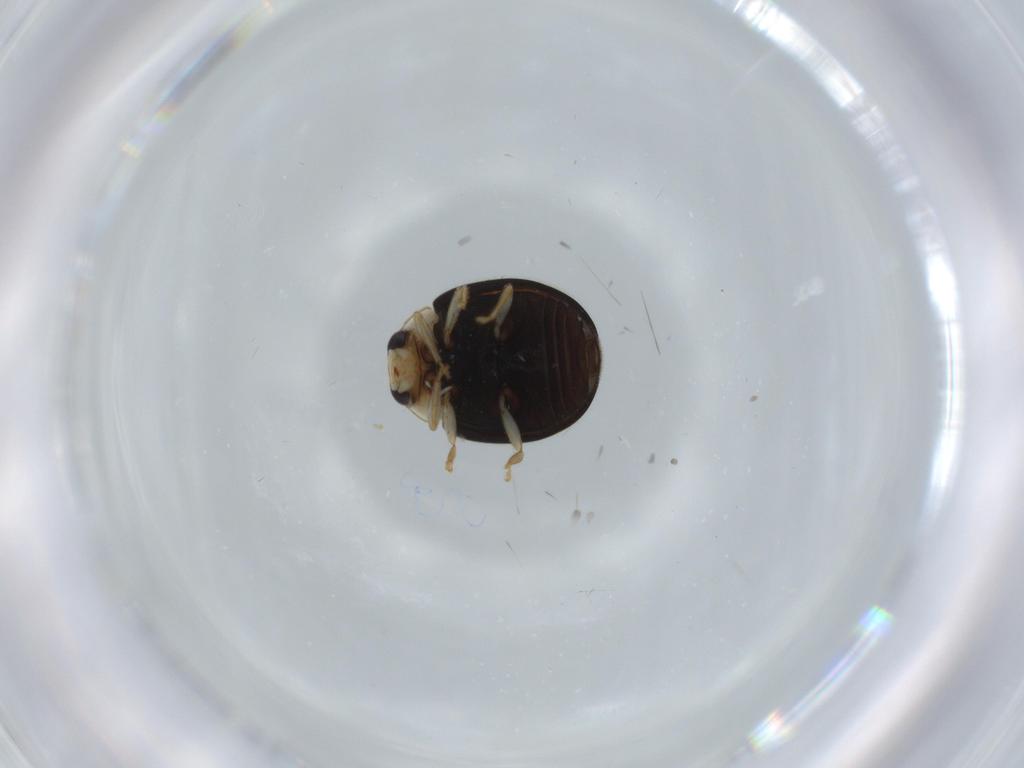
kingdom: Animalia
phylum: Arthropoda
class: Insecta
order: Coleoptera
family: Coccinellidae
